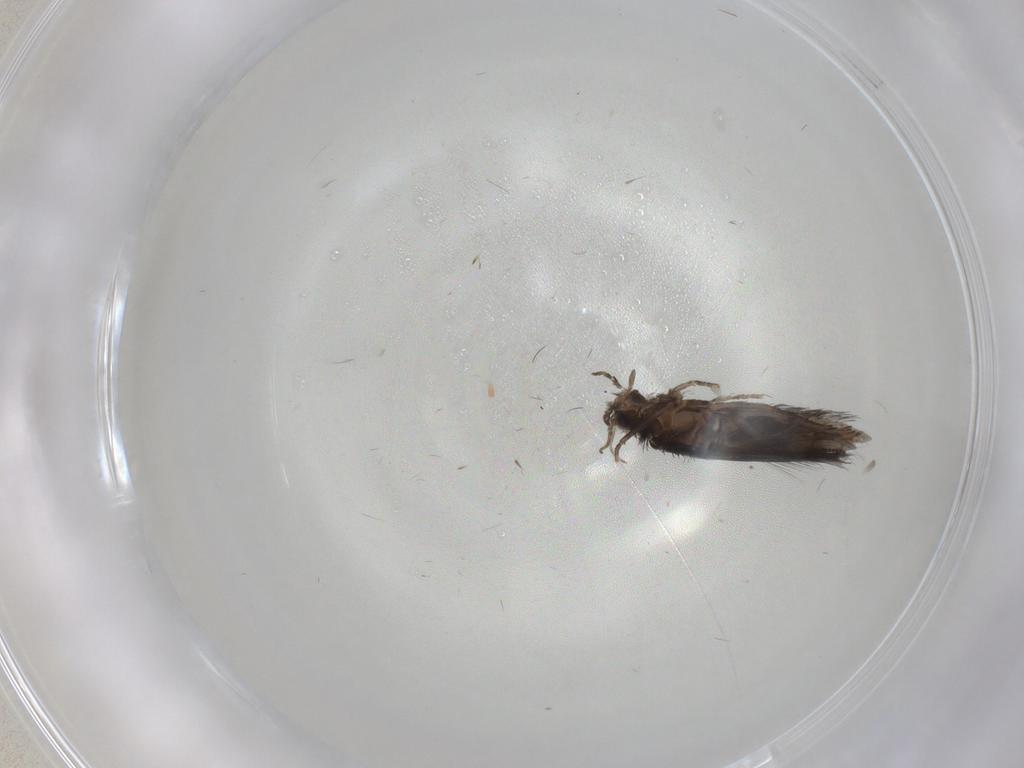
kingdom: Animalia
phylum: Arthropoda
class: Insecta
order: Trichoptera
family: Hydroptilidae
